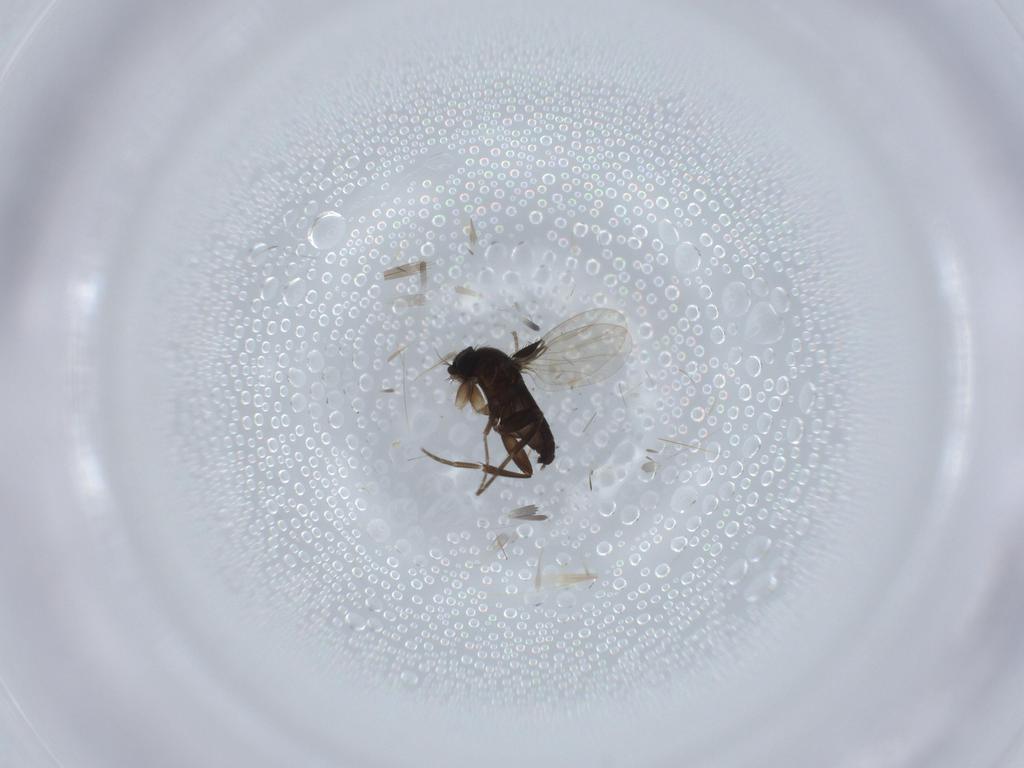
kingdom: Animalia
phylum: Arthropoda
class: Insecta
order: Diptera
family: Phoridae
